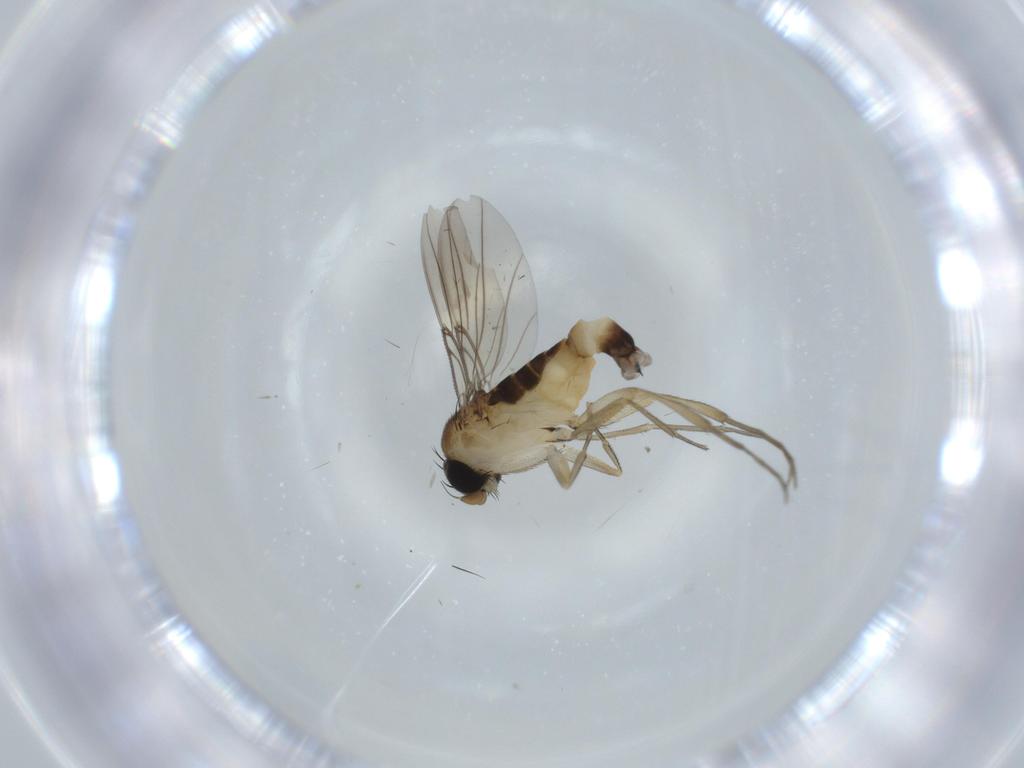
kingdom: Animalia
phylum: Arthropoda
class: Insecta
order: Diptera
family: Phoridae
